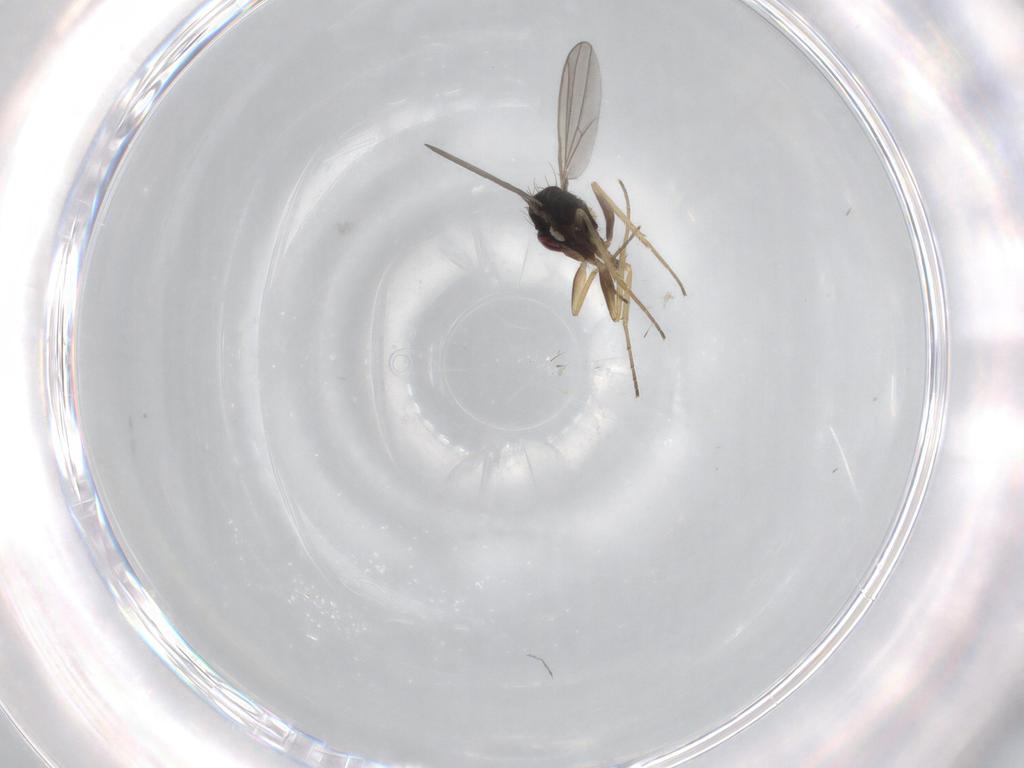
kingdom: Animalia
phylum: Arthropoda
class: Insecta
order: Diptera
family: Dolichopodidae
